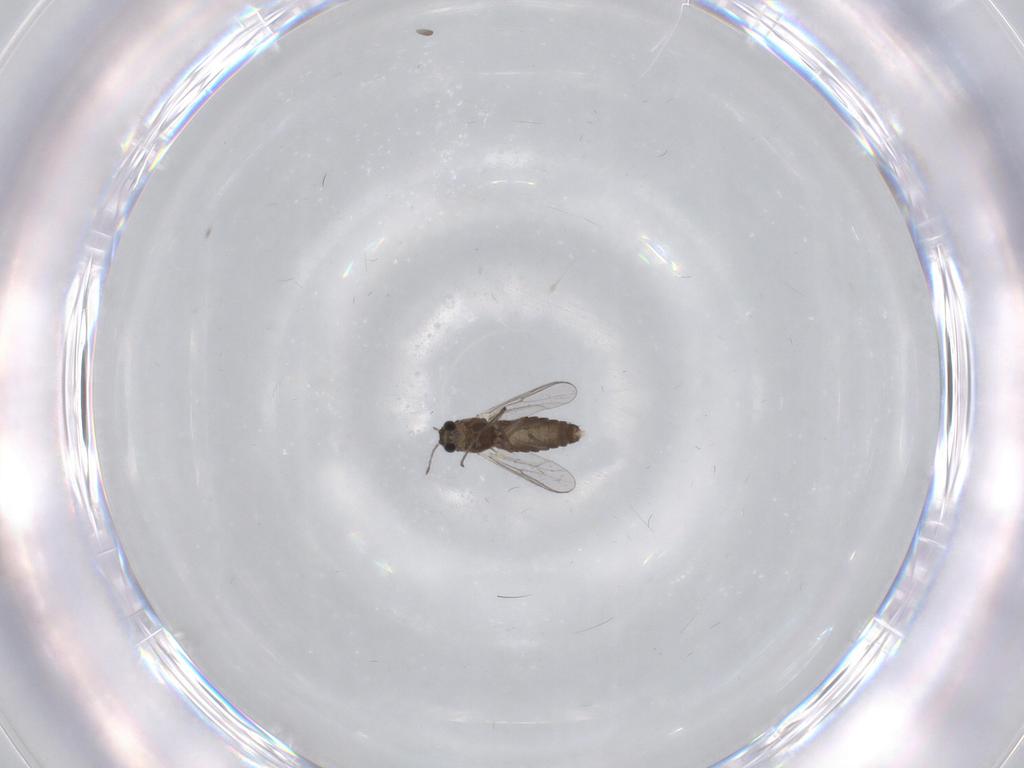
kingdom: Animalia
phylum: Arthropoda
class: Insecta
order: Diptera
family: Chironomidae
